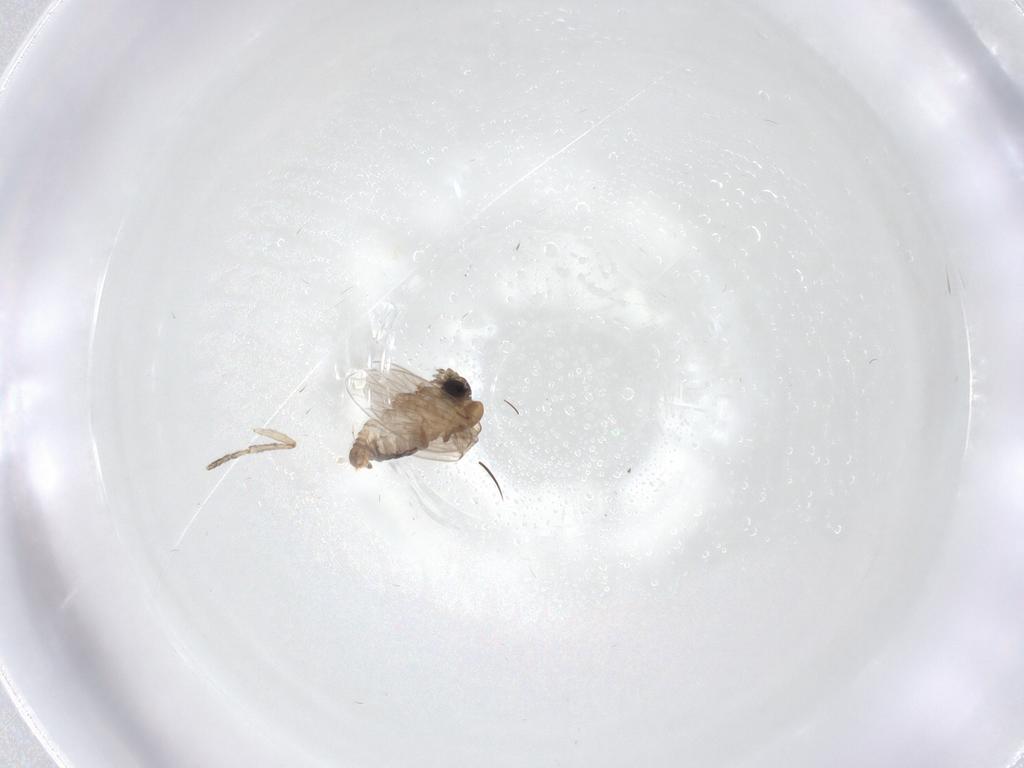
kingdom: Animalia
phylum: Arthropoda
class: Insecta
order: Diptera
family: Psychodidae
